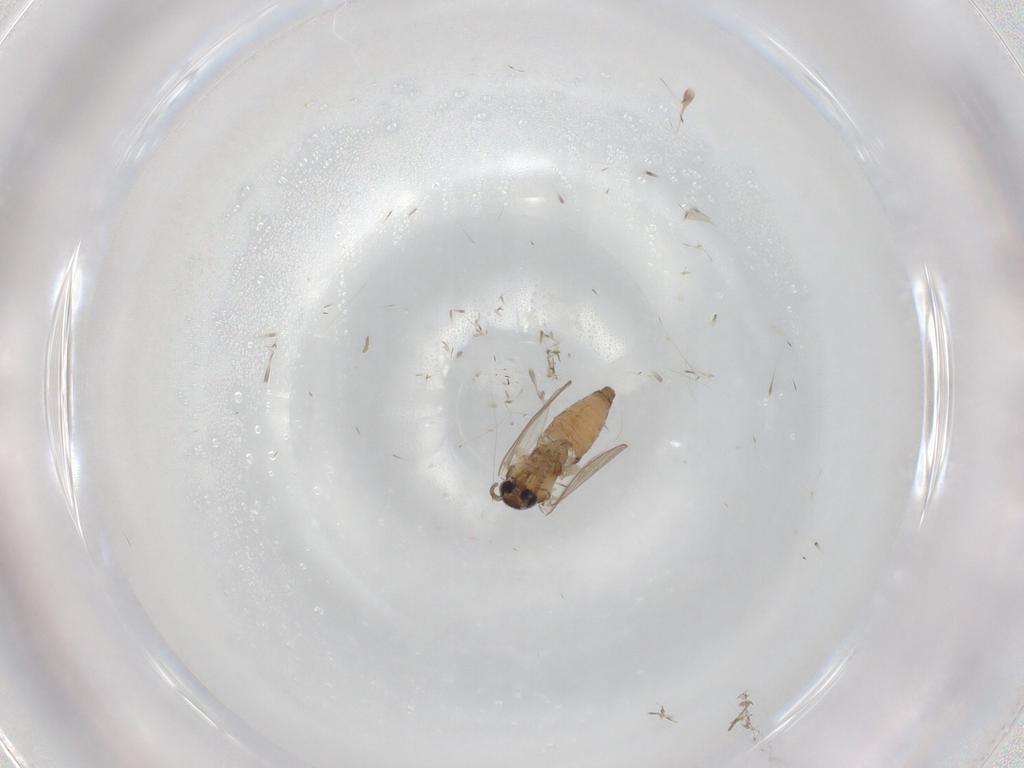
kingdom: Animalia
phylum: Arthropoda
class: Insecta
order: Diptera
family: Psychodidae
